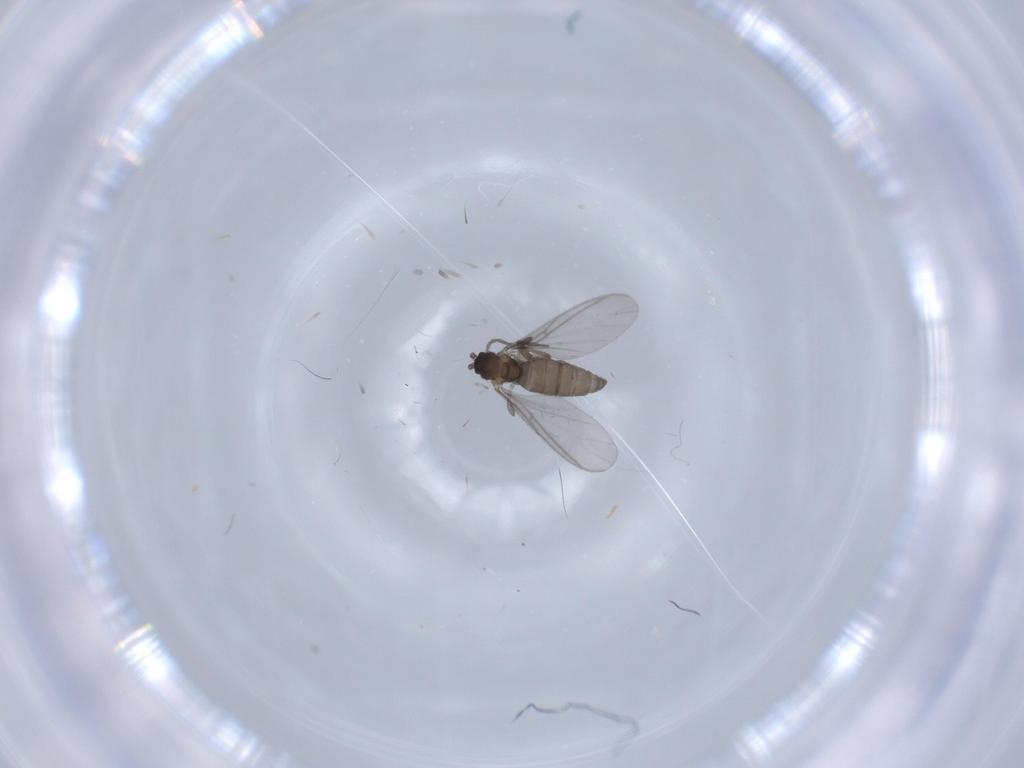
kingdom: Animalia
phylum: Arthropoda
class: Insecta
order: Diptera
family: Sciaridae
